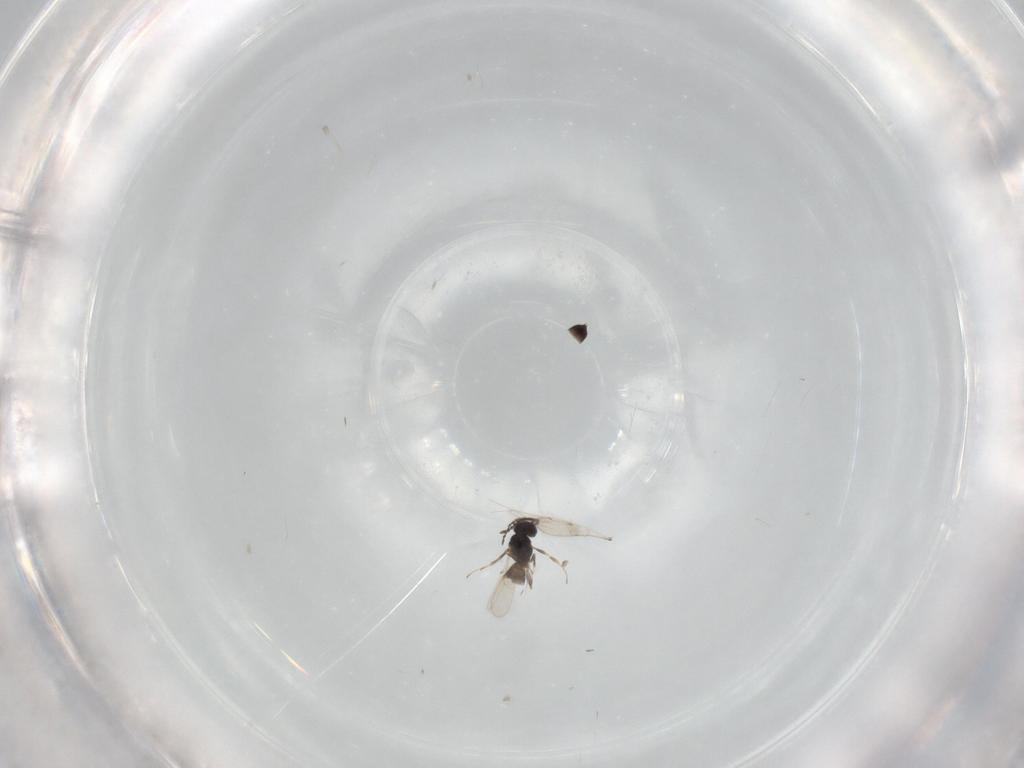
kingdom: Animalia
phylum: Arthropoda
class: Insecta
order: Hymenoptera
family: Scelionidae
